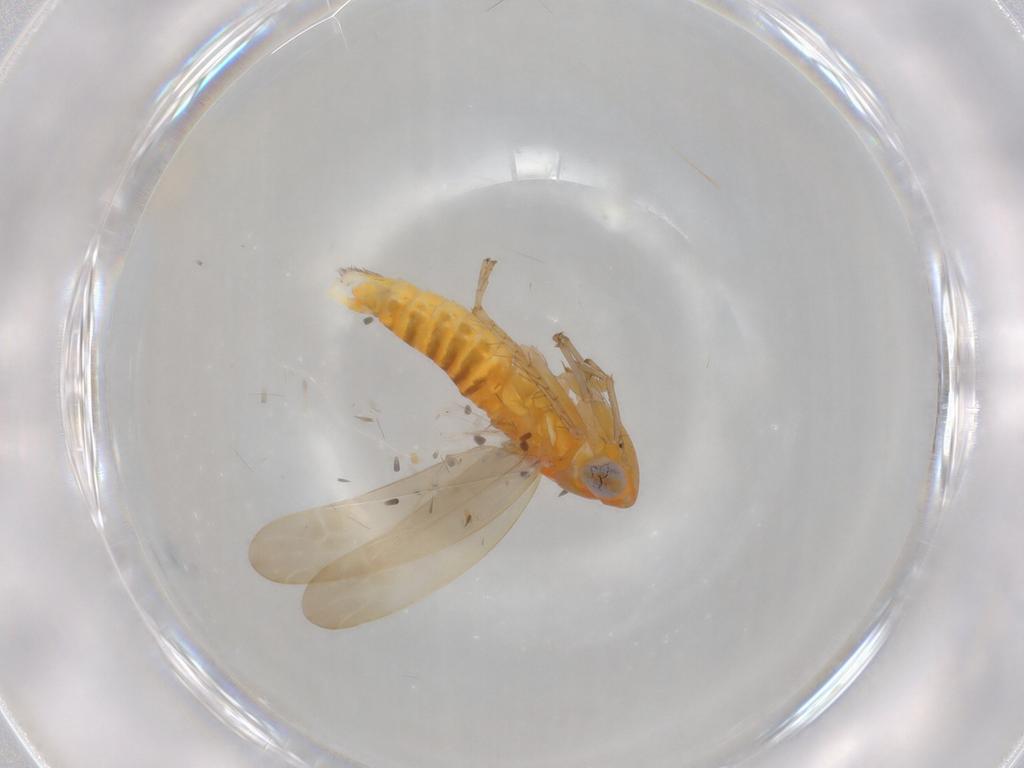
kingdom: Animalia
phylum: Arthropoda
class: Insecta
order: Hemiptera
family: Cicadellidae
